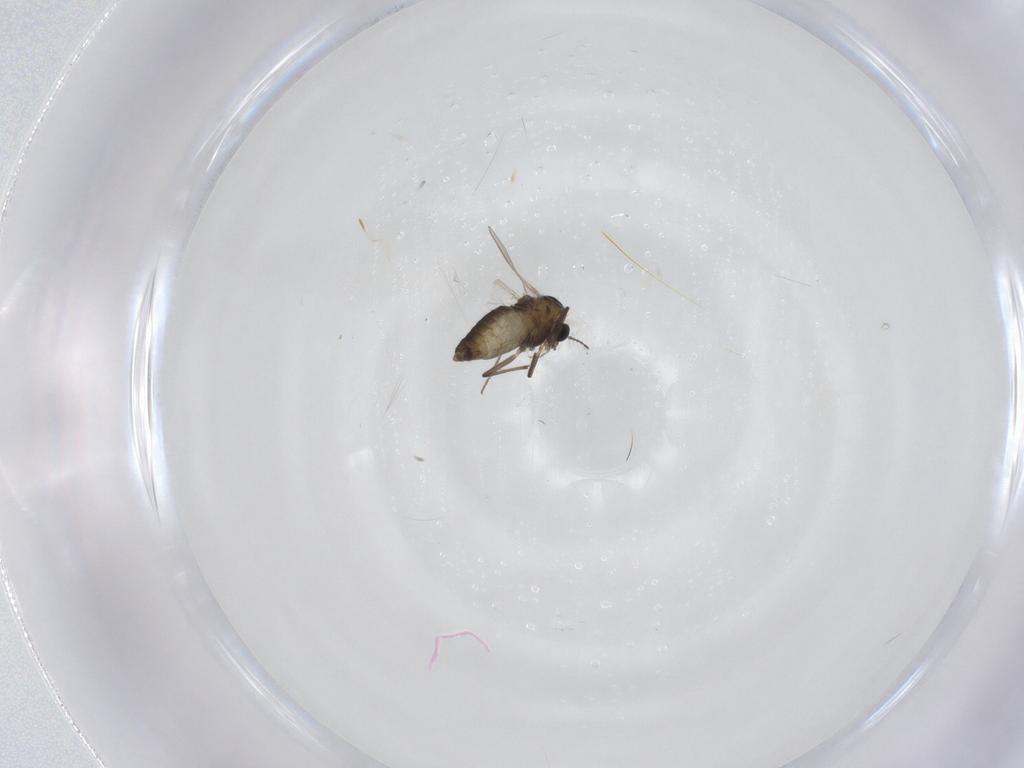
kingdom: Animalia
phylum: Arthropoda
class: Insecta
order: Diptera
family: Chironomidae
